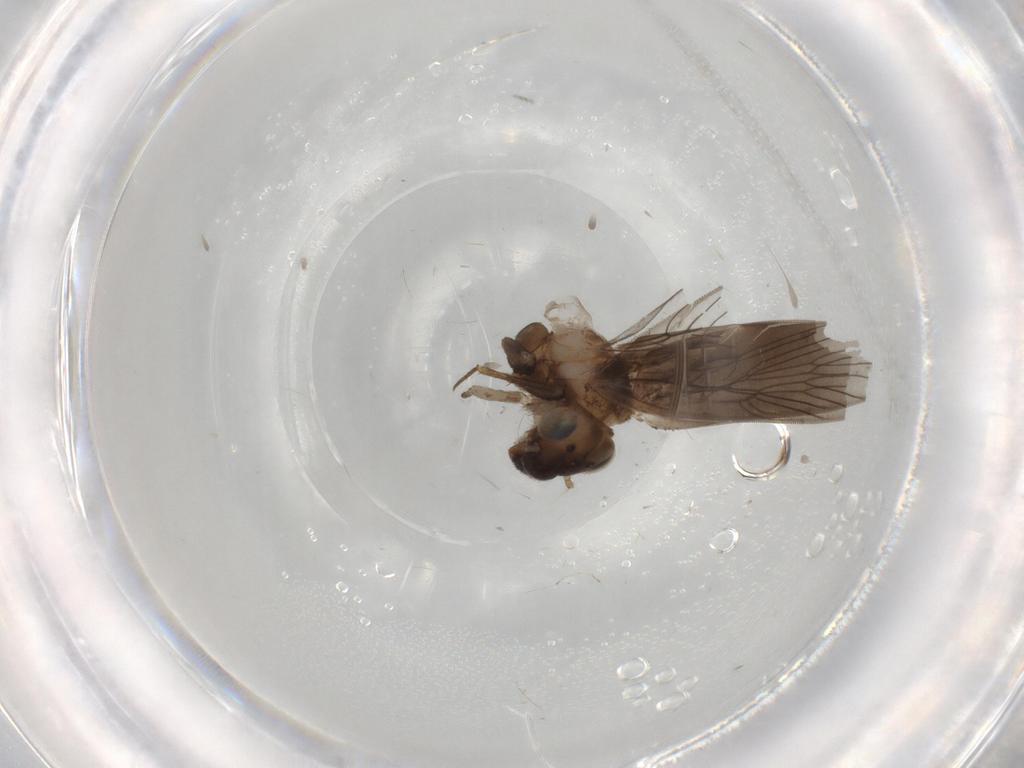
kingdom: Animalia
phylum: Arthropoda
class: Insecta
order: Psocodea
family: Lepidopsocidae
